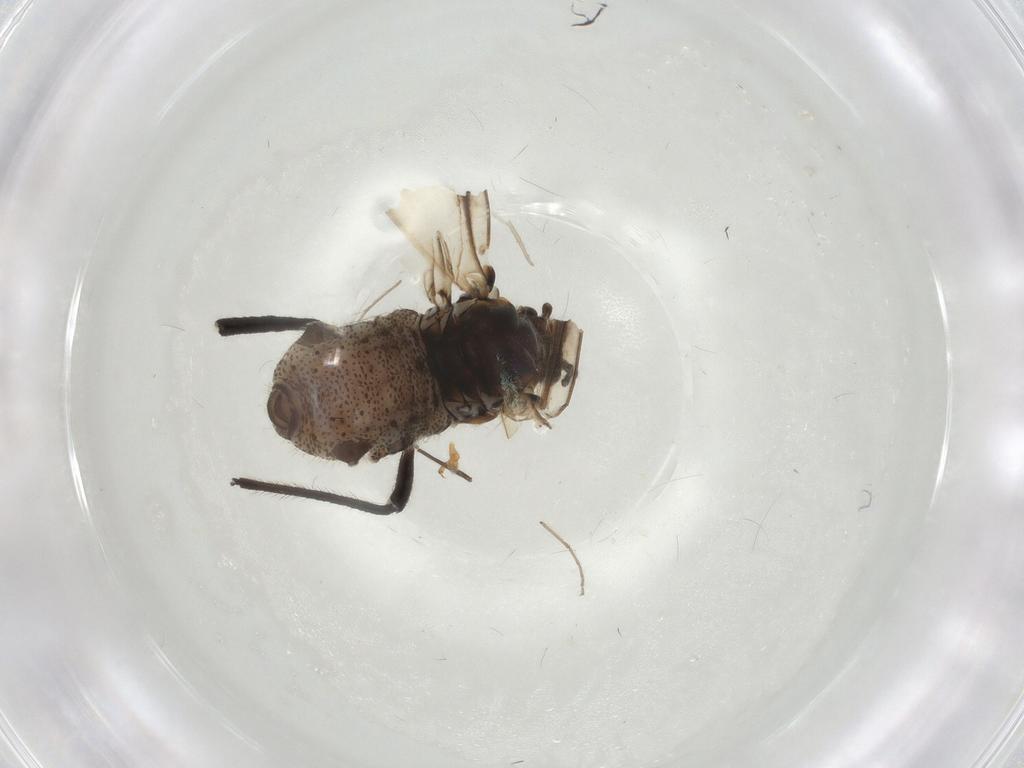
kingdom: Animalia
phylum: Arthropoda
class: Insecta
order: Hemiptera
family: Lachnidae
